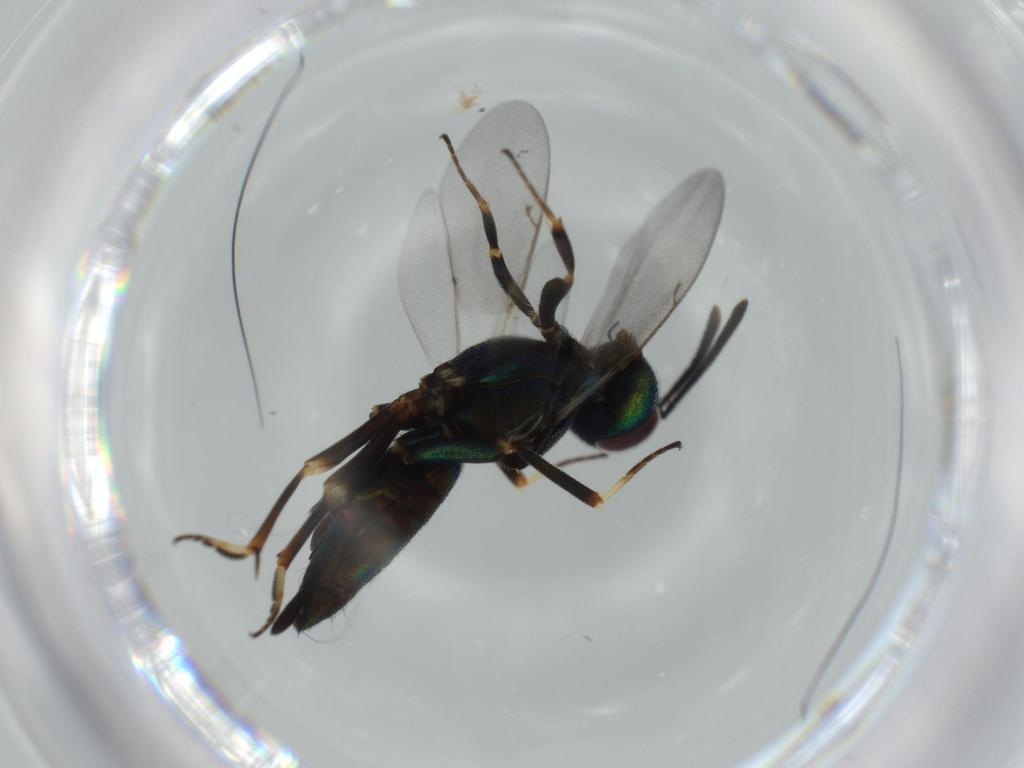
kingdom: Animalia
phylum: Arthropoda
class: Insecta
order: Hymenoptera
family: Eupelmidae
